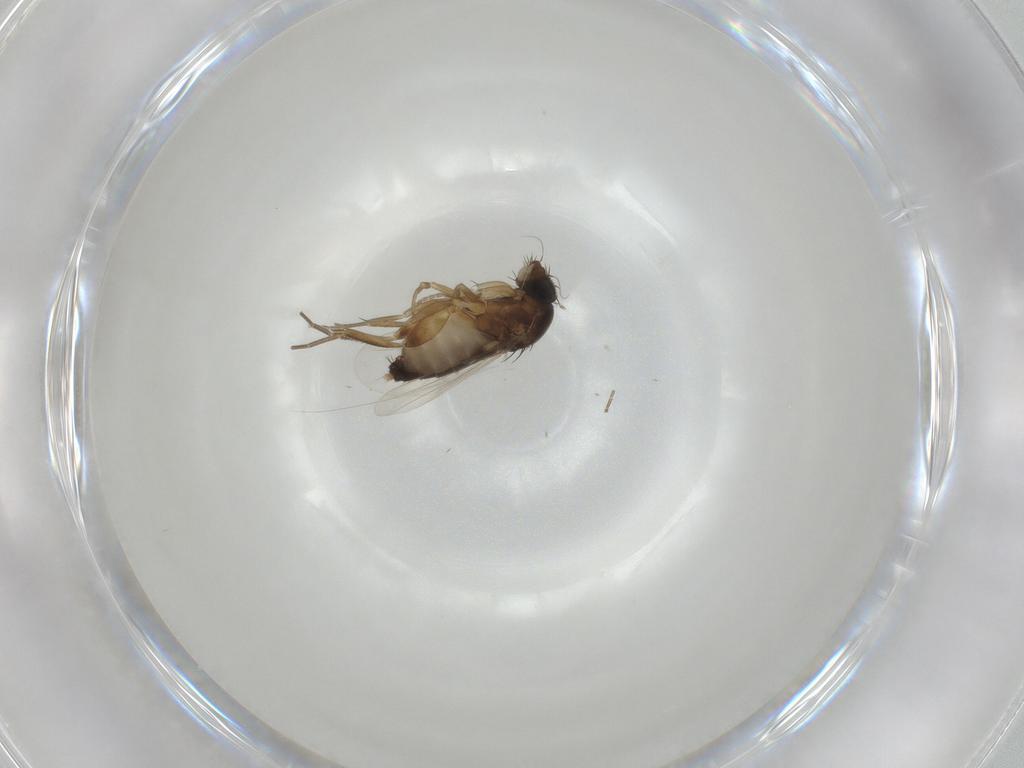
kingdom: Animalia
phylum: Arthropoda
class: Insecta
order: Diptera
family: Phoridae
